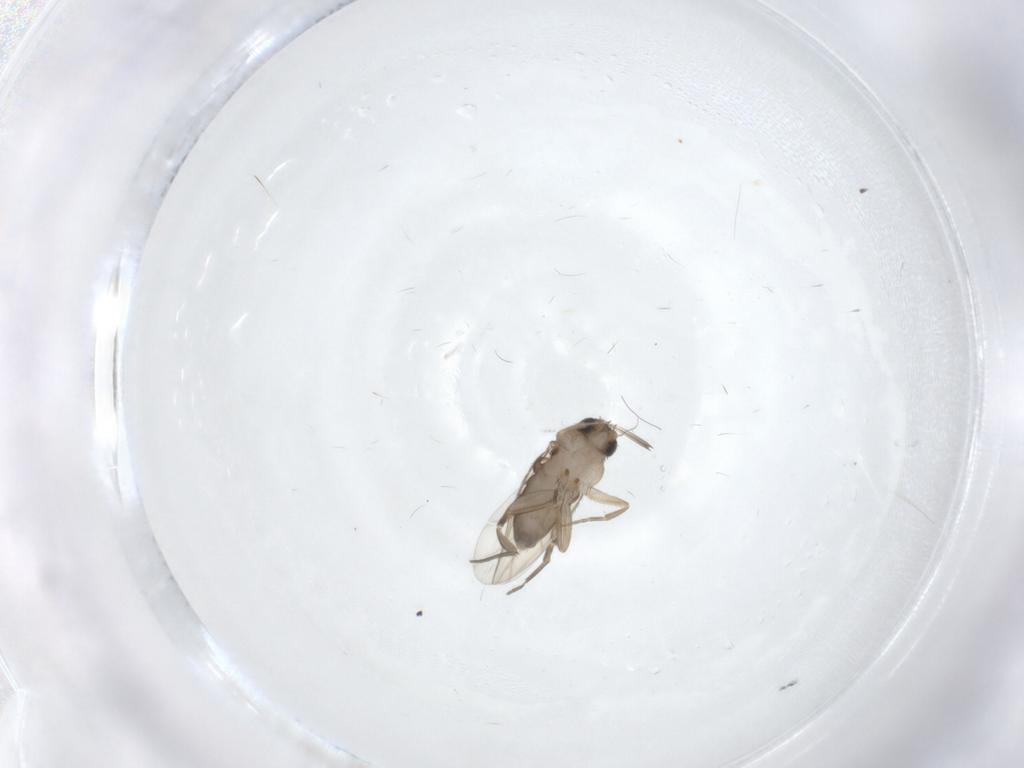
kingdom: Animalia
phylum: Arthropoda
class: Insecta
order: Diptera
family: Phoridae
